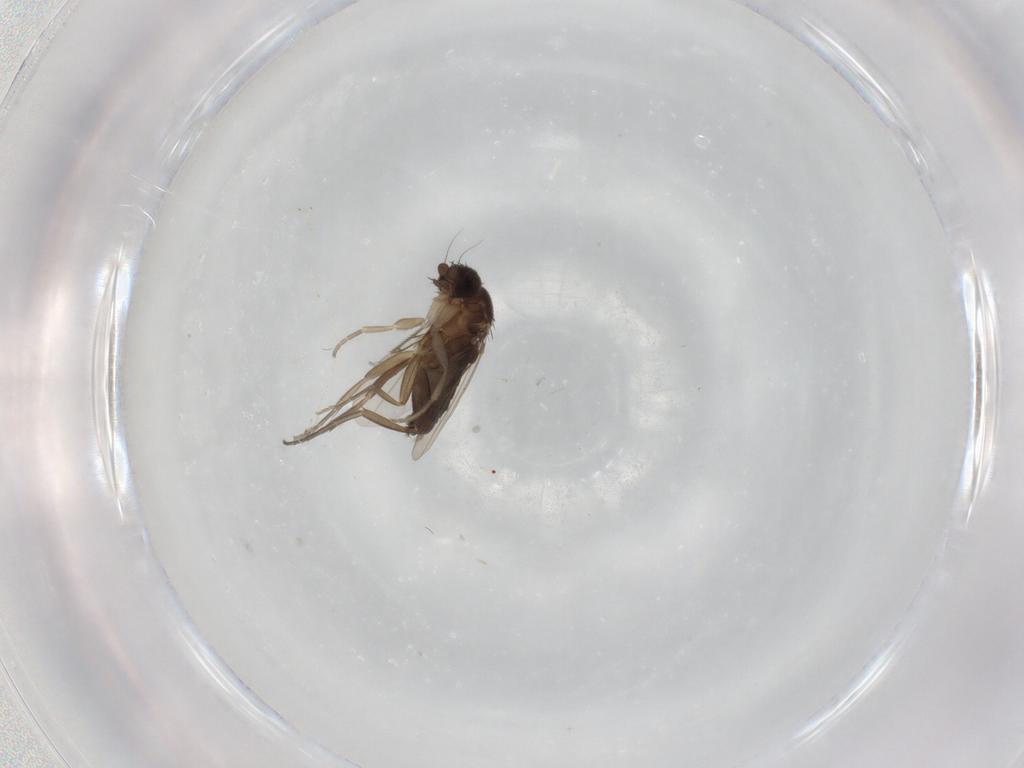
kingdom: Animalia
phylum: Arthropoda
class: Insecta
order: Diptera
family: Phoridae
